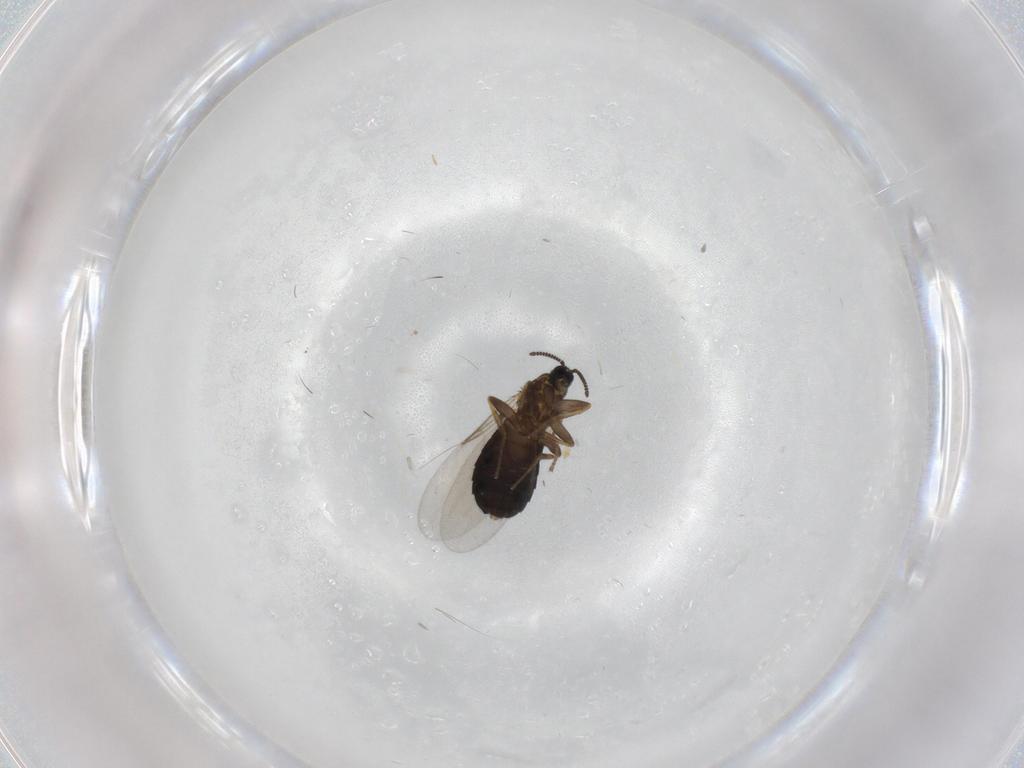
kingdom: Animalia
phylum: Arthropoda
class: Insecta
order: Diptera
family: Scatopsidae
